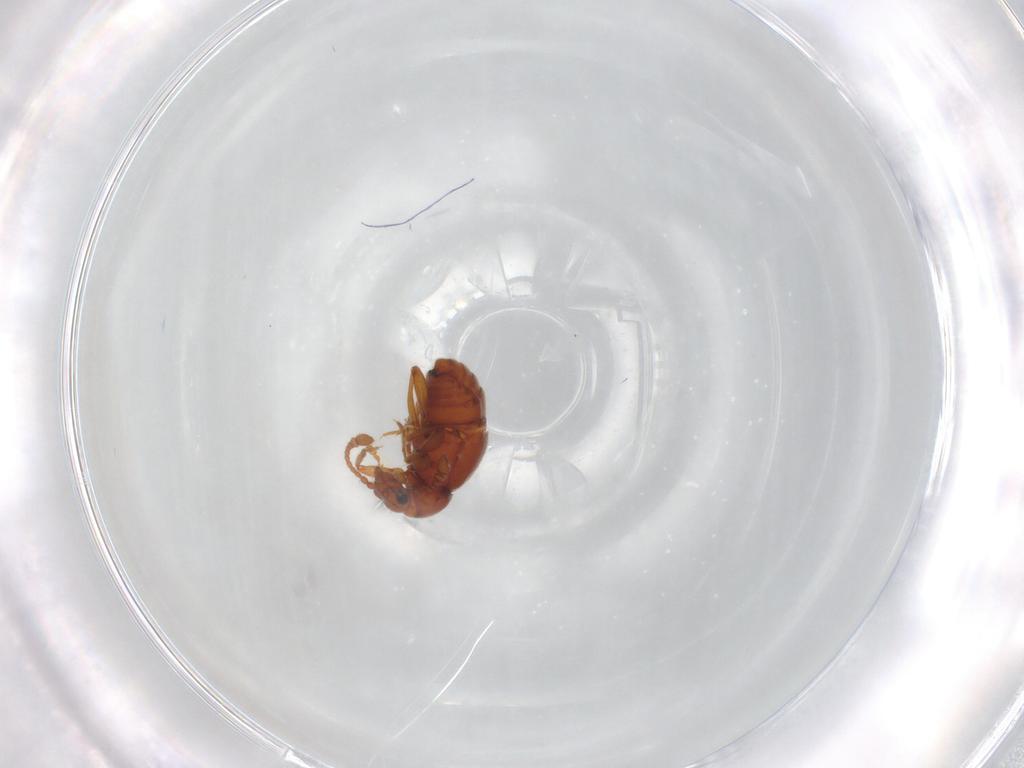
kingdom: Animalia
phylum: Arthropoda
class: Insecta
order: Coleoptera
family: Staphylinidae
